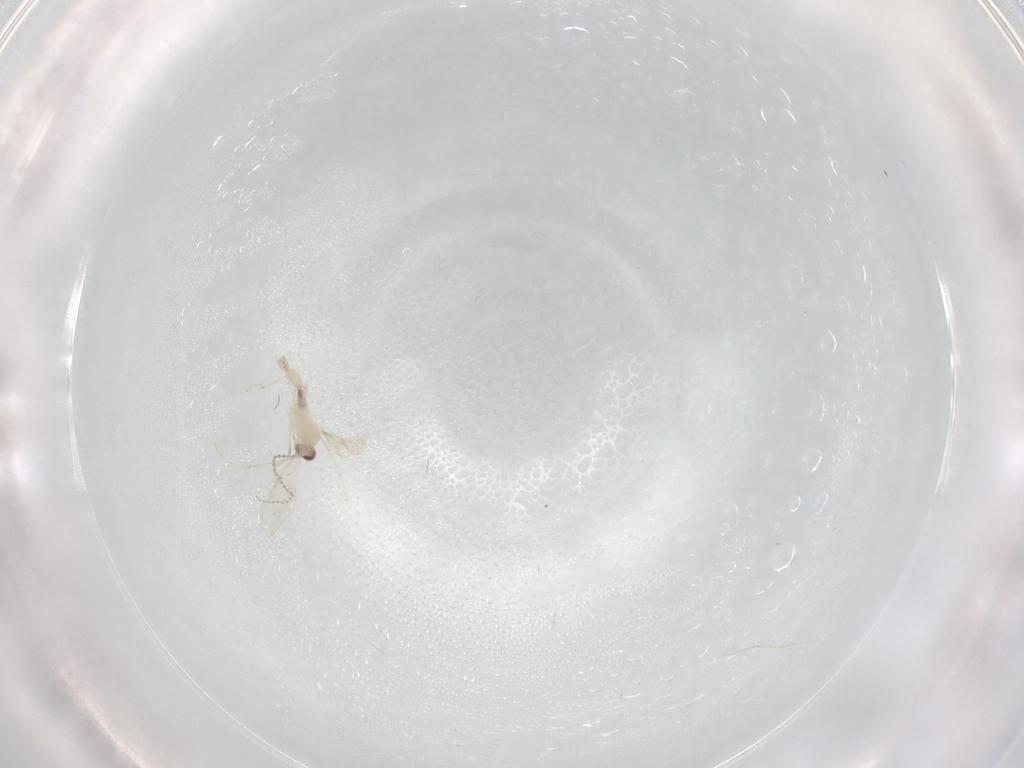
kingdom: Animalia
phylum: Arthropoda
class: Insecta
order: Diptera
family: Cecidomyiidae
